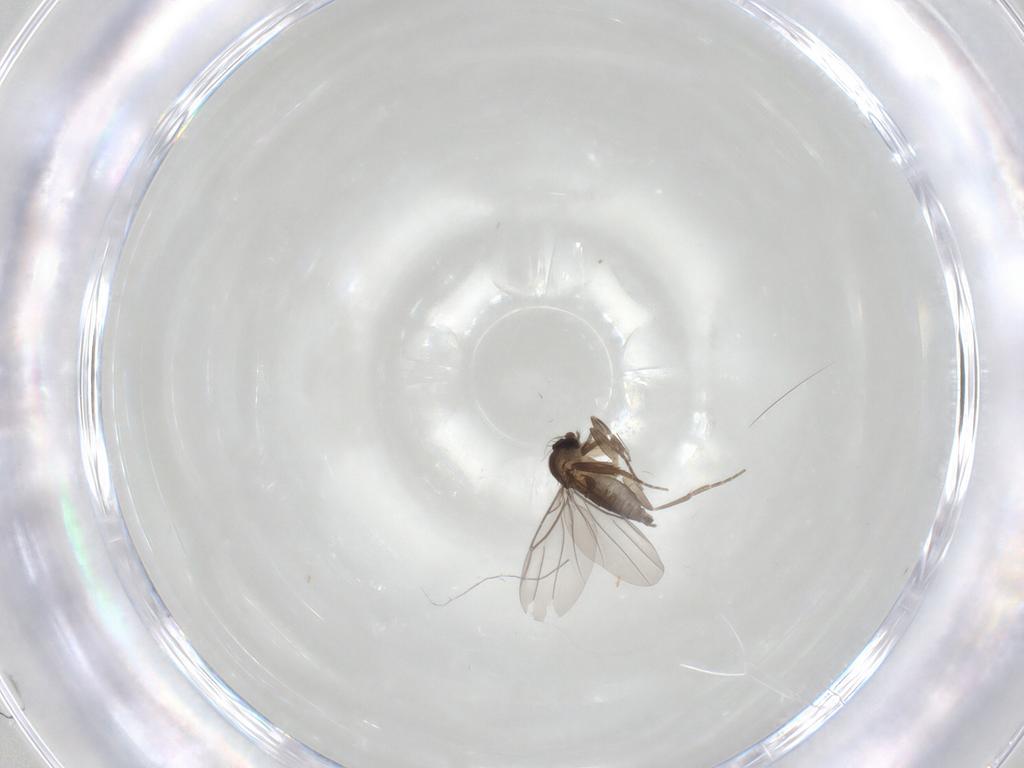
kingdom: Animalia
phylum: Arthropoda
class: Insecta
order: Diptera
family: Phoridae
